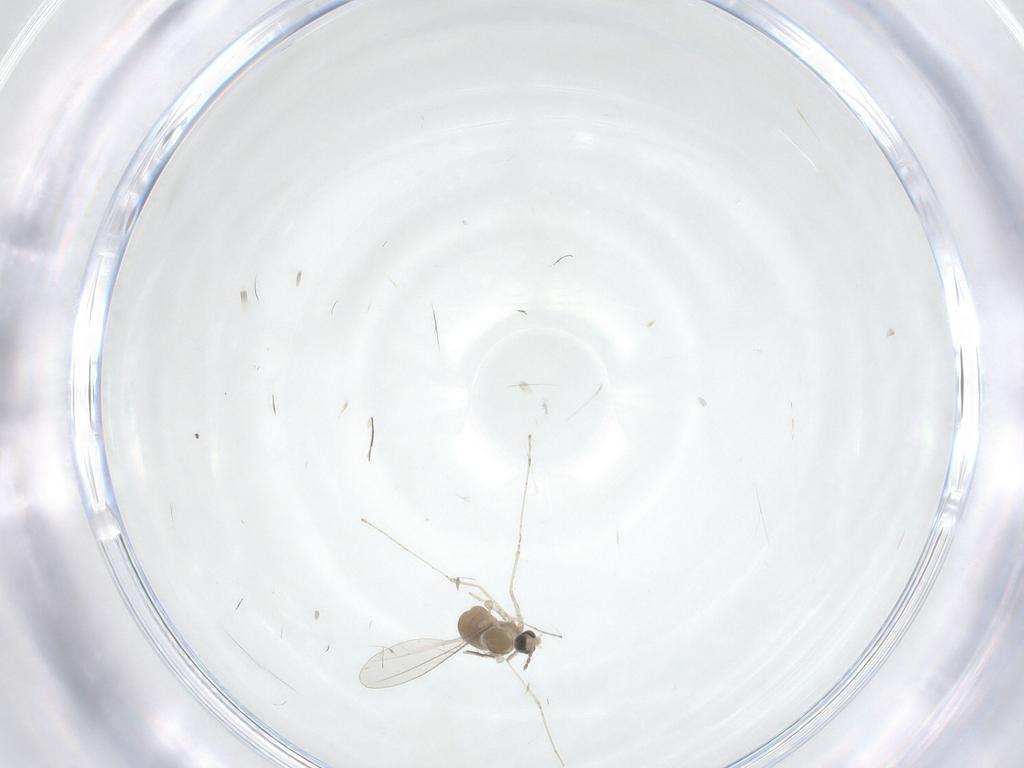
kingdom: Animalia
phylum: Arthropoda
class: Insecta
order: Diptera
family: Cecidomyiidae
